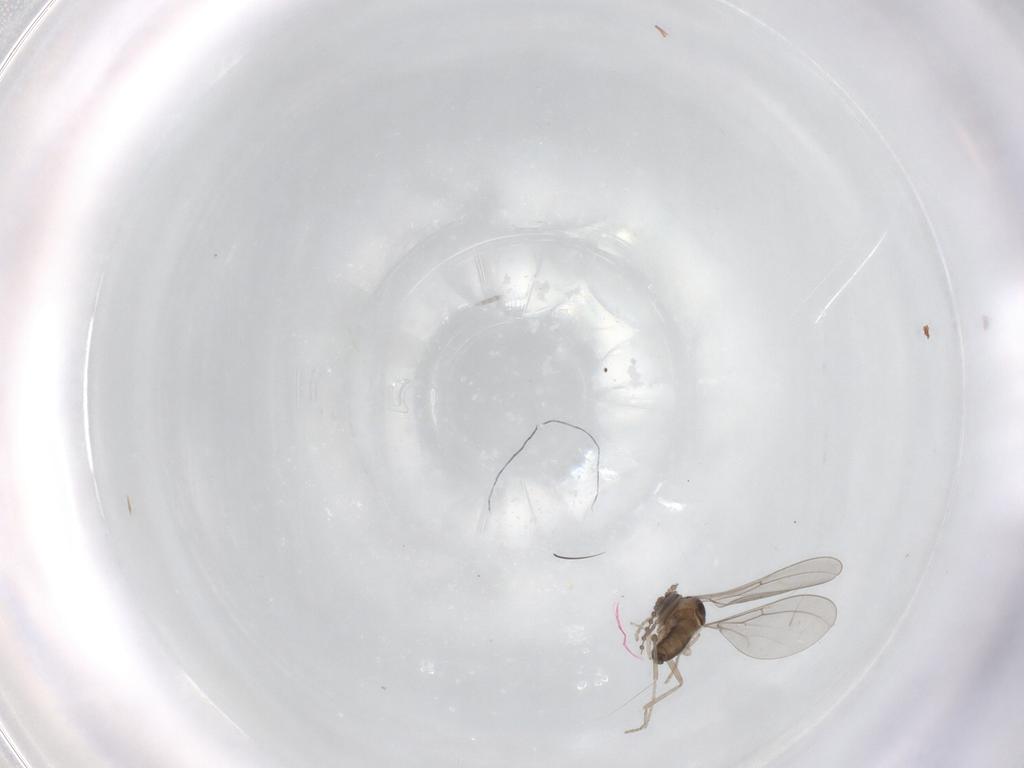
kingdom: Animalia
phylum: Arthropoda
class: Insecta
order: Diptera
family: Cecidomyiidae
